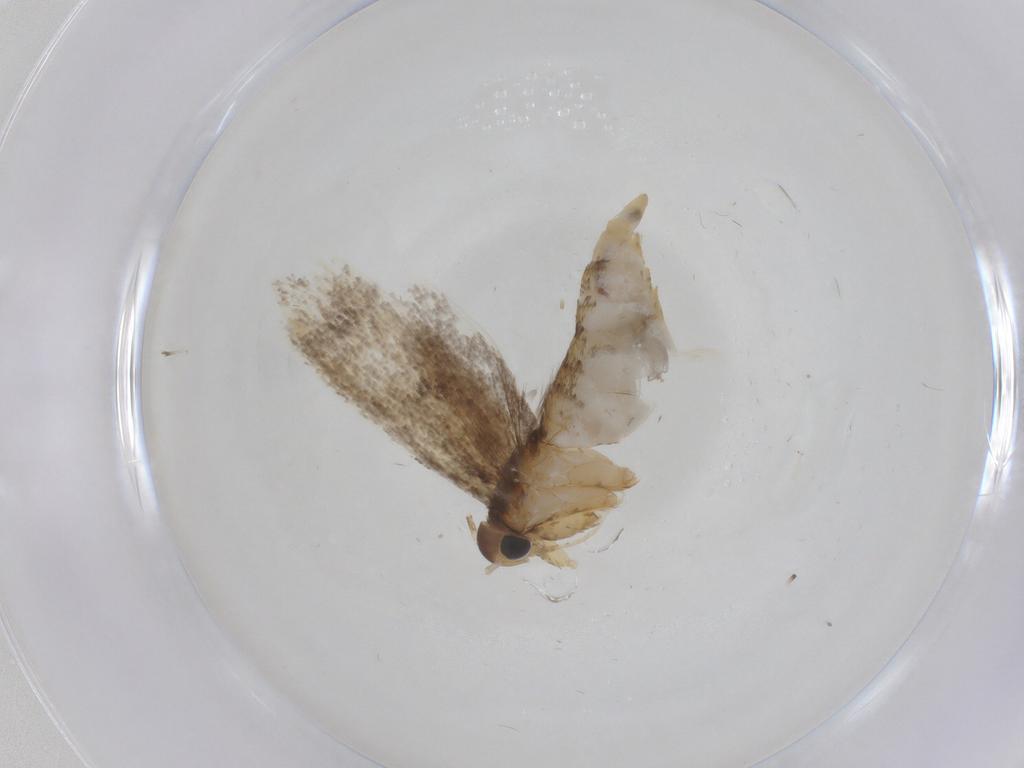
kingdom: Animalia
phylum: Arthropoda
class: Insecta
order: Lepidoptera
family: Oecophoridae
